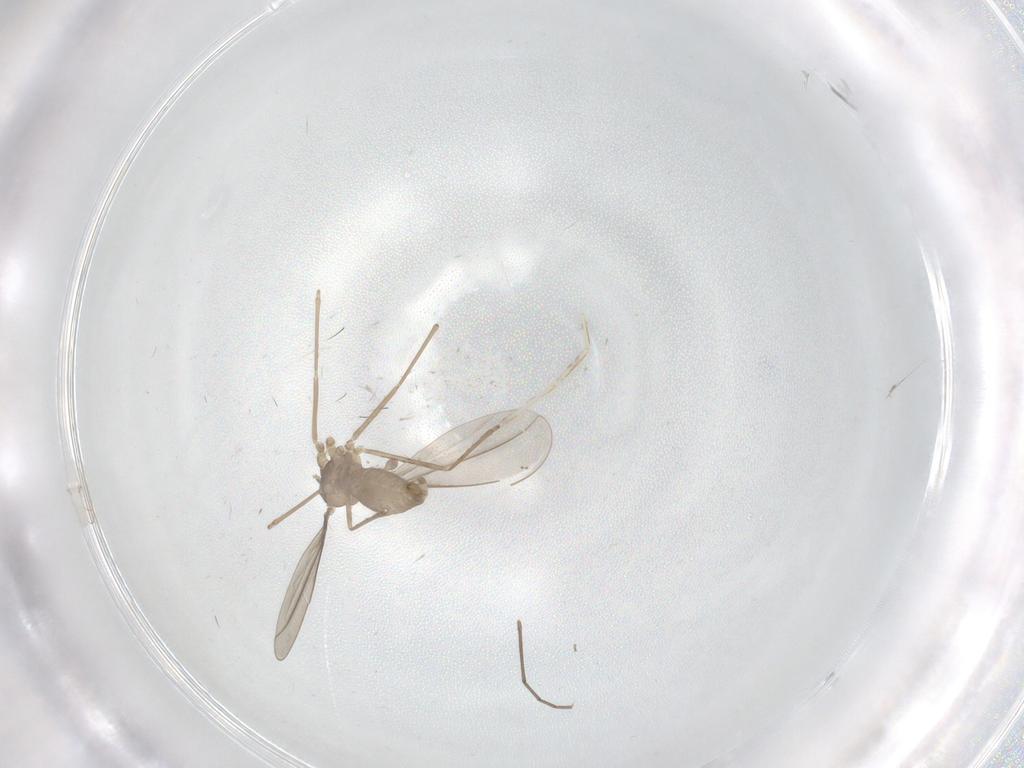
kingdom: Animalia
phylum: Arthropoda
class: Insecta
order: Diptera
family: Cecidomyiidae
